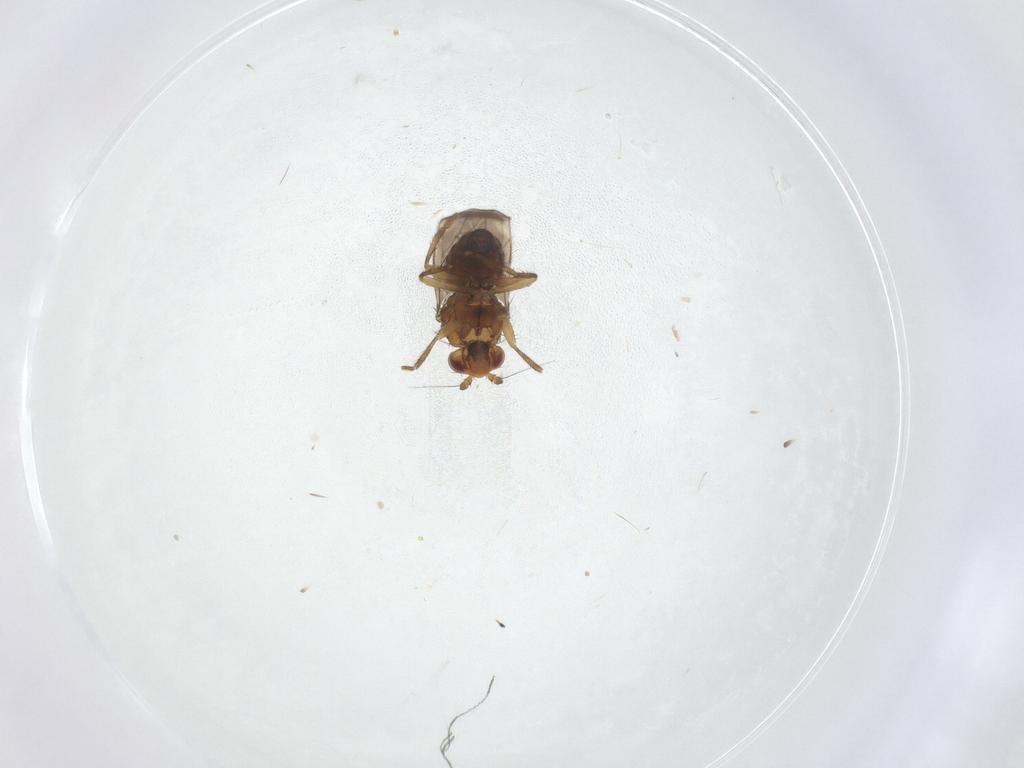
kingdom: Animalia
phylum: Arthropoda
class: Insecta
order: Diptera
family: Sphaeroceridae
